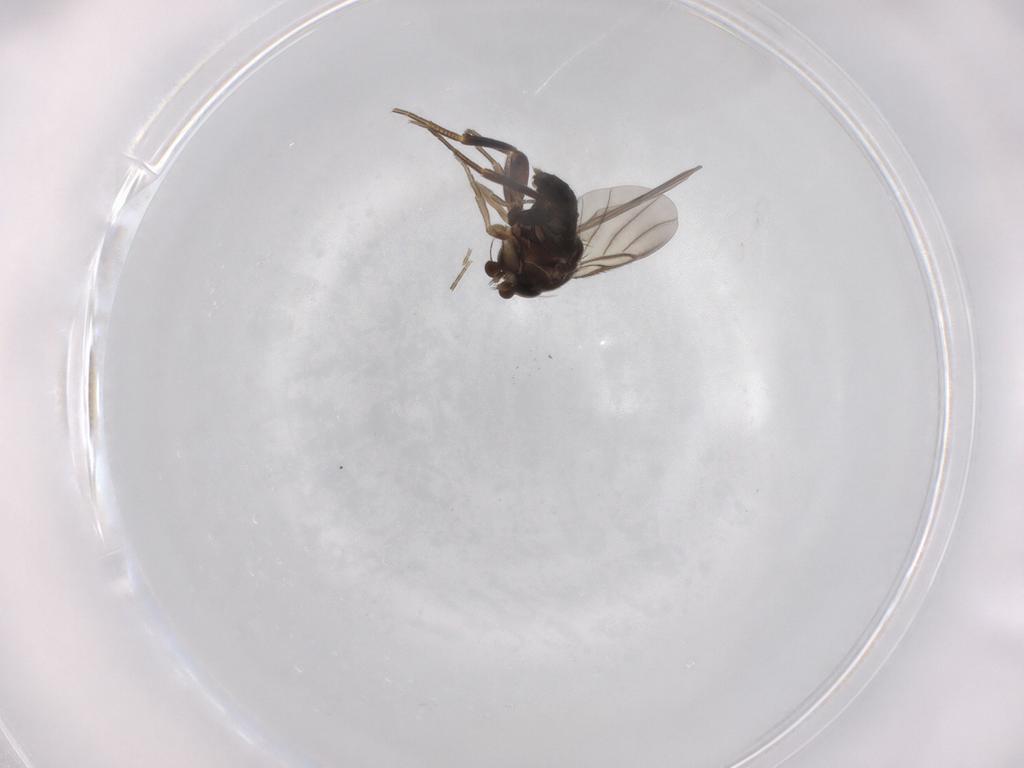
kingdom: Animalia
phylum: Arthropoda
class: Insecta
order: Diptera
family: Phoridae
